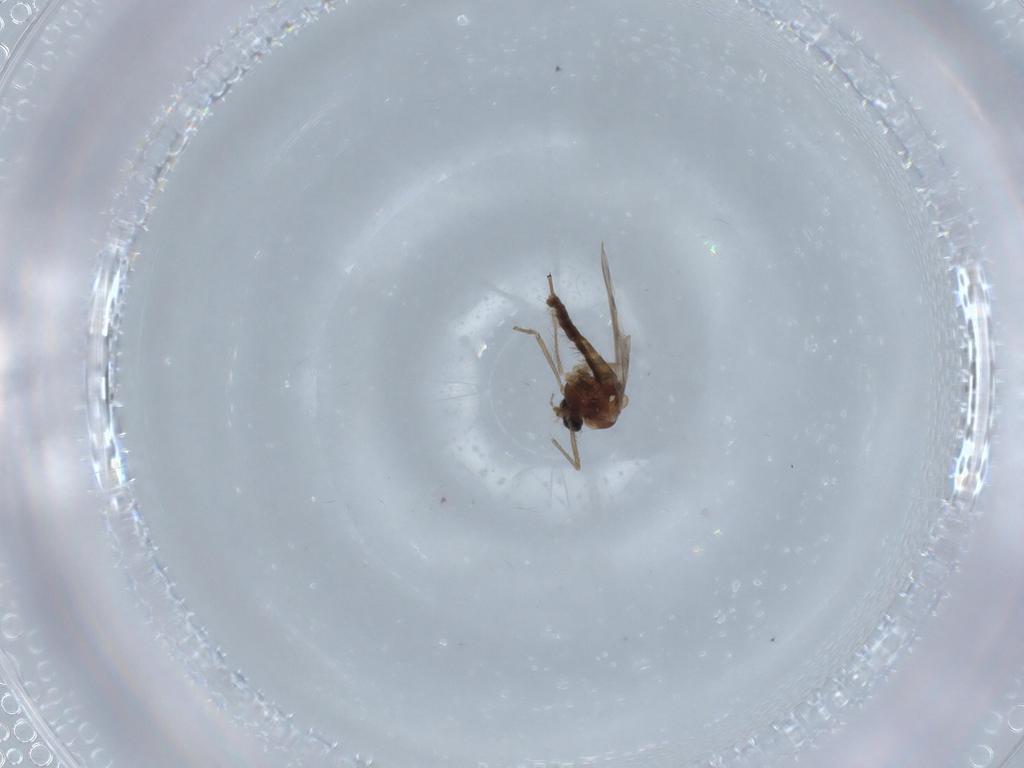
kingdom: Animalia
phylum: Arthropoda
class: Insecta
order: Diptera
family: Chironomidae
